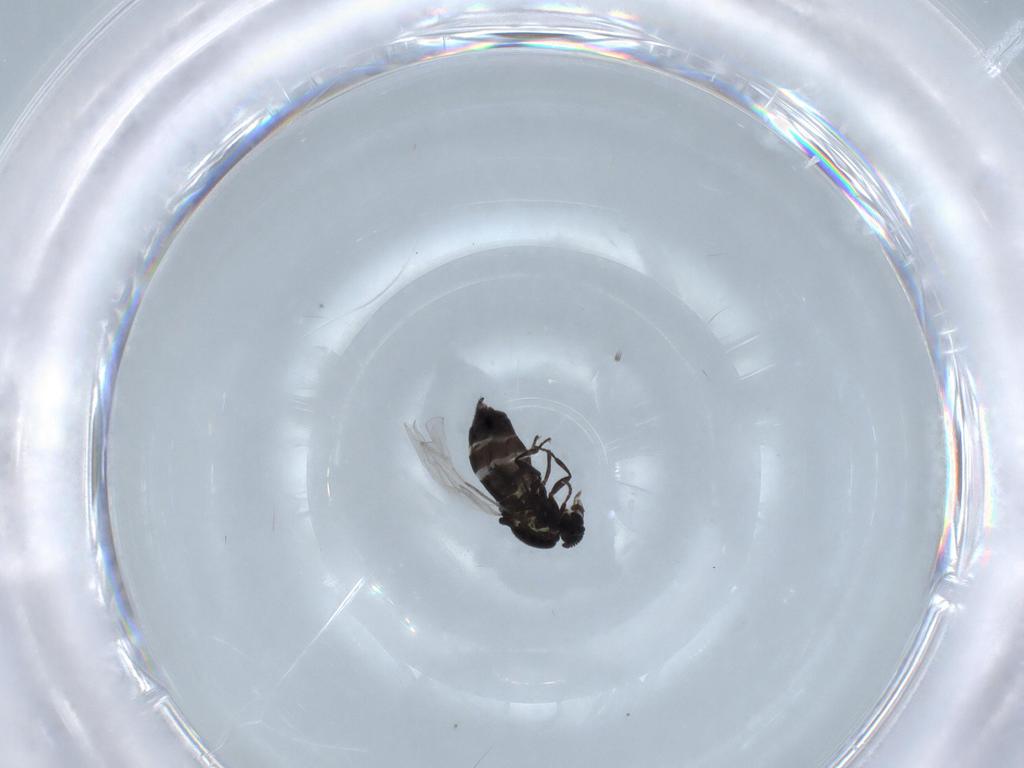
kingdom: Animalia
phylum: Arthropoda
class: Insecta
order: Diptera
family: Scatopsidae
